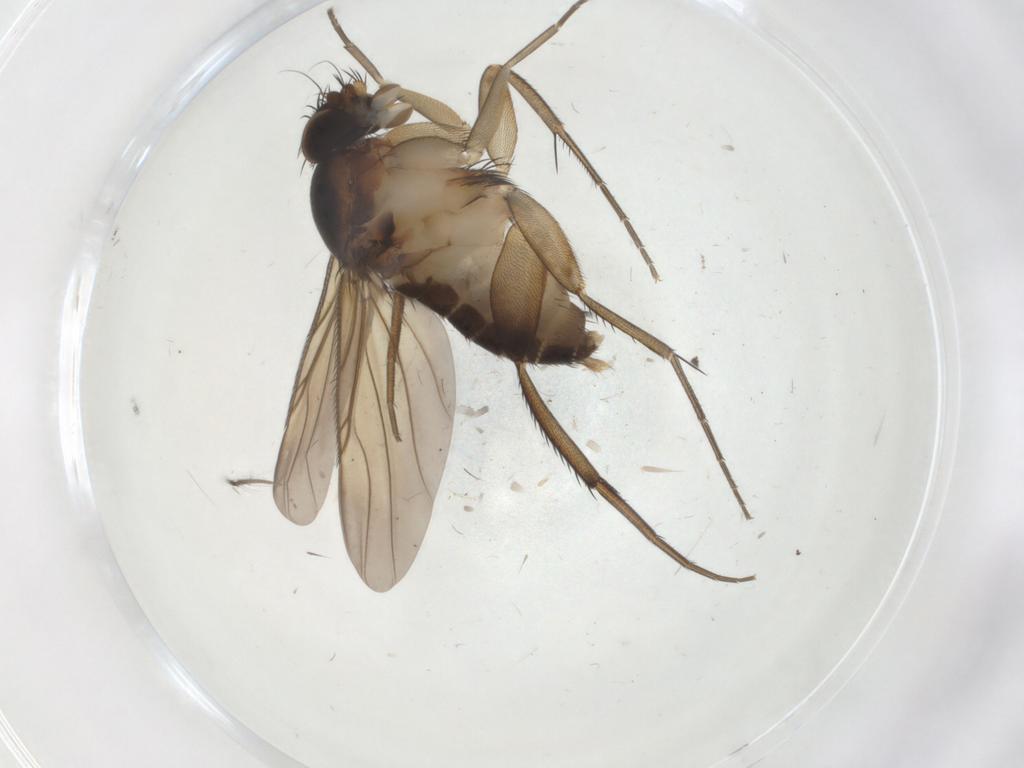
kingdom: Animalia
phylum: Arthropoda
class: Insecta
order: Diptera
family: Phoridae
